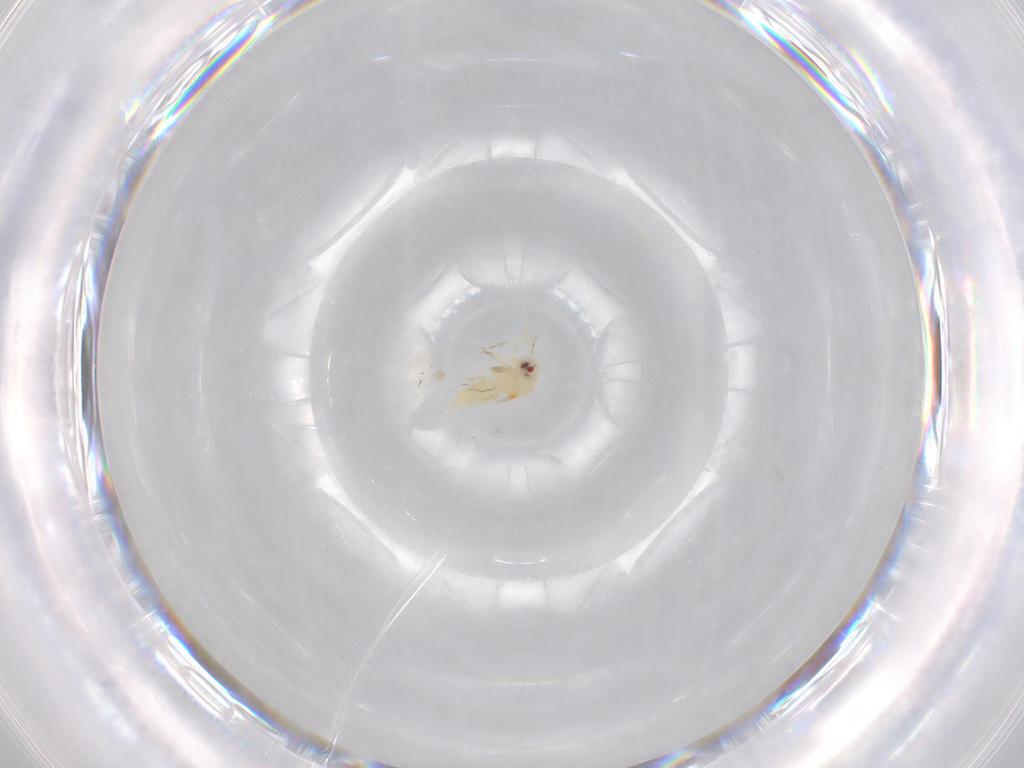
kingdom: Animalia
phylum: Arthropoda
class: Insecta
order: Hemiptera
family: Aleyrodidae
